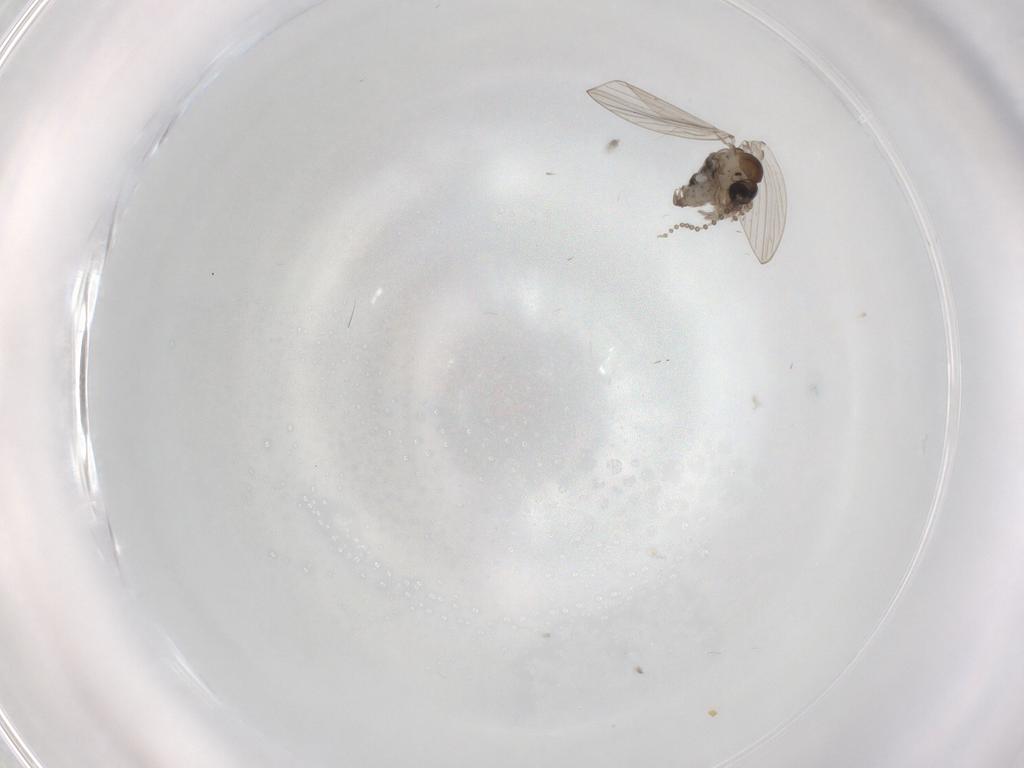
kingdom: Animalia
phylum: Arthropoda
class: Insecta
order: Diptera
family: Psychodidae
